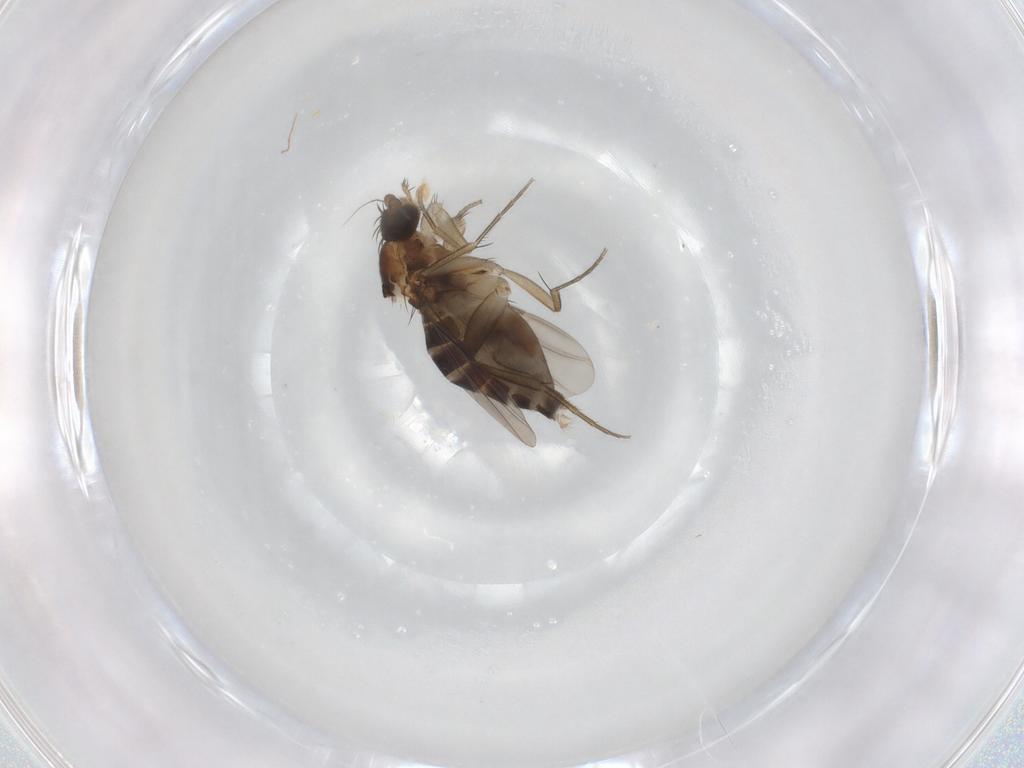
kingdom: Animalia
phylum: Arthropoda
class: Insecta
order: Diptera
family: Phoridae
